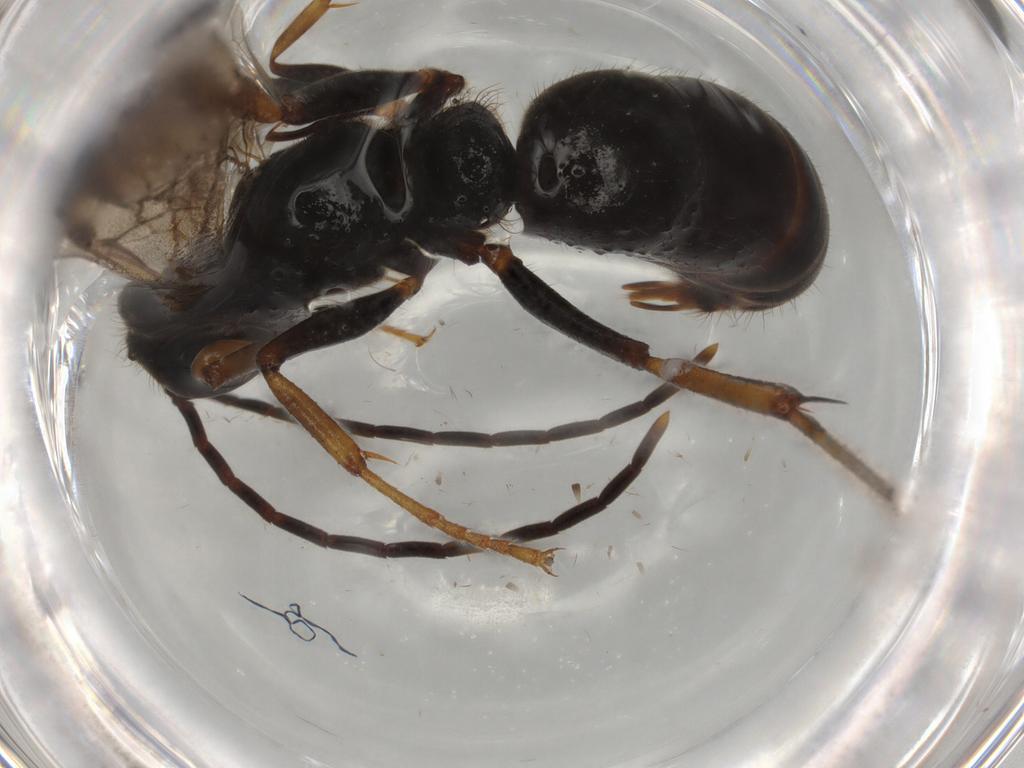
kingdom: Animalia
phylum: Arthropoda
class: Insecta
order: Hymenoptera
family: Formicidae
